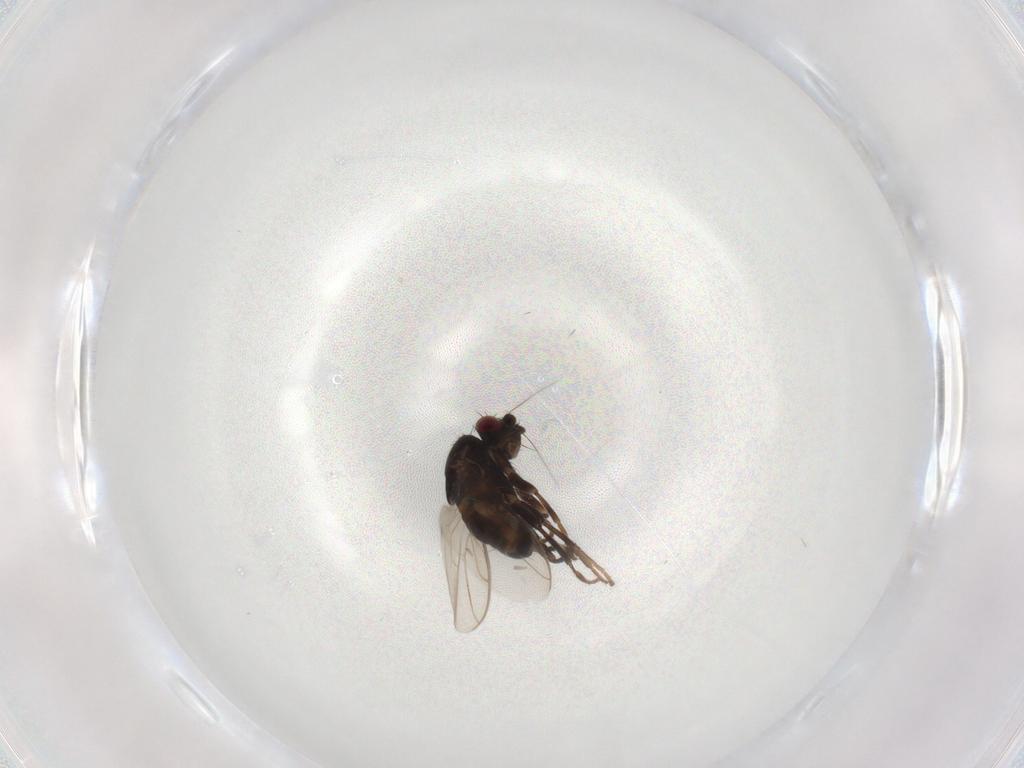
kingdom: Animalia
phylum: Arthropoda
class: Insecta
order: Diptera
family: Sphaeroceridae
